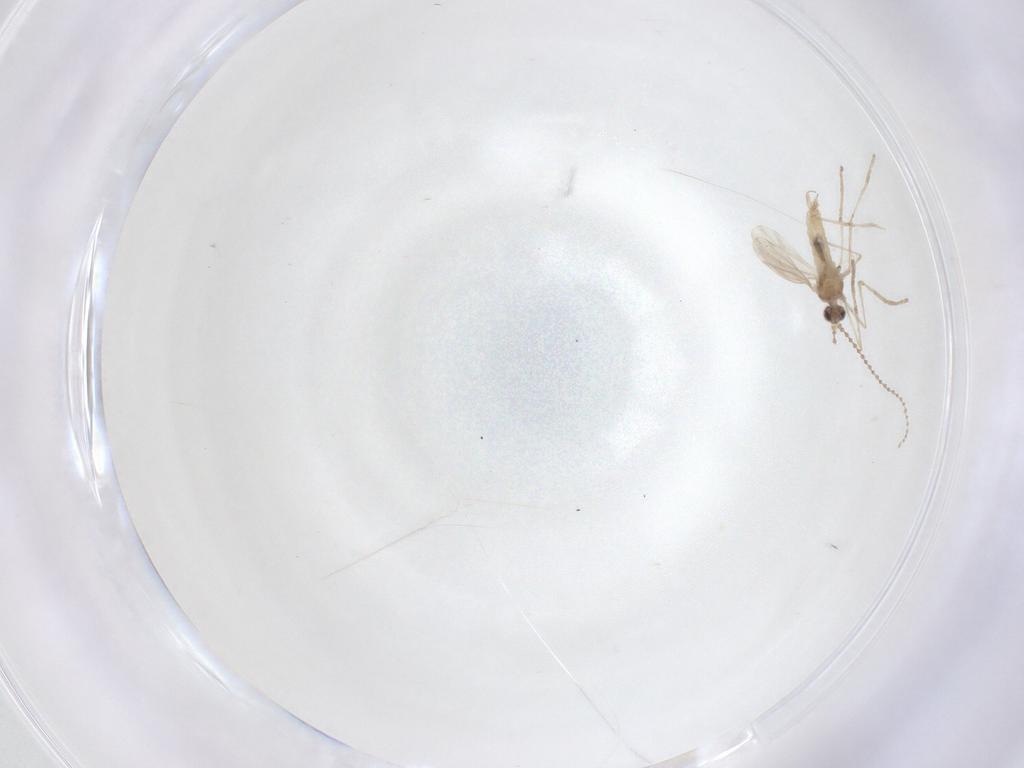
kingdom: Animalia
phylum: Arthropoda
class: Insecta
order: Diptera
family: Cecidomyiidae
